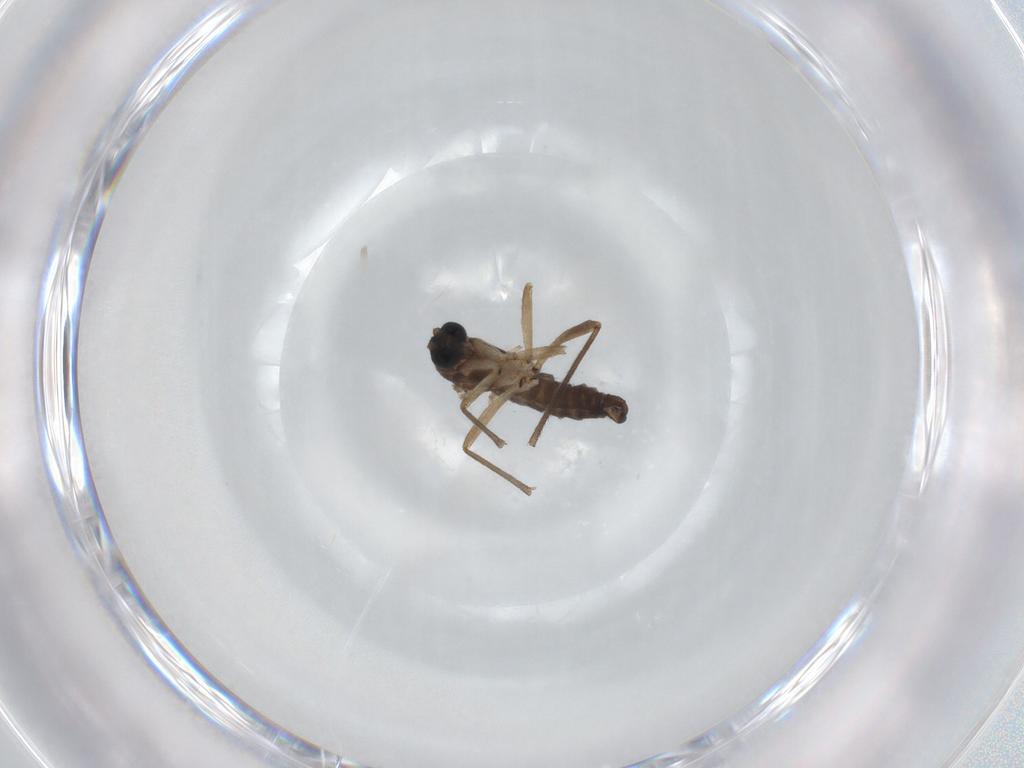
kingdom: Animalia
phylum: Arthropoda
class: Insecta
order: Diptera
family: Sciaridae
